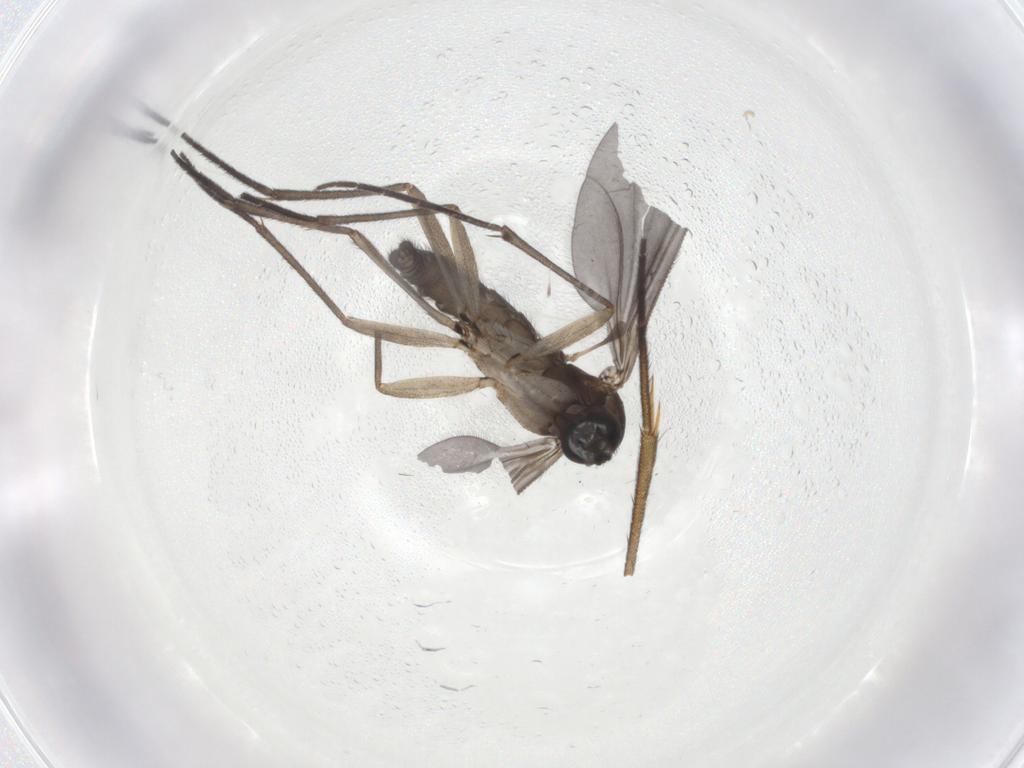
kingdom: Animalia
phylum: Arthropoda
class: Insecta
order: Diptera
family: Sciaridae
